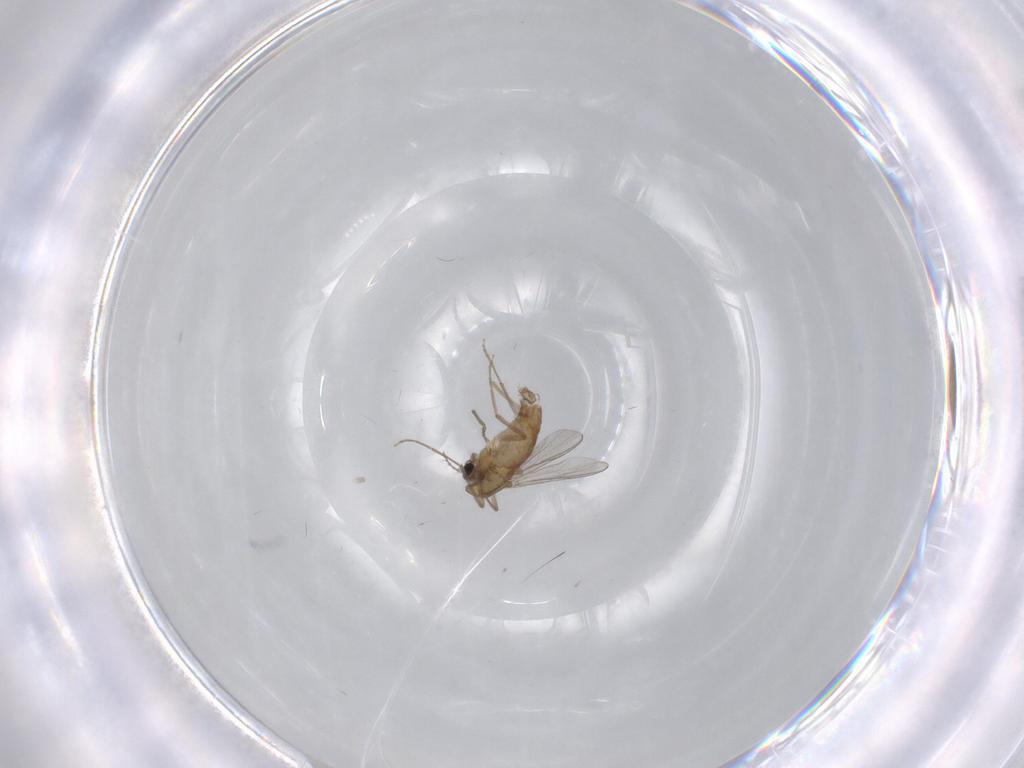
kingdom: Animalia
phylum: Arthropoda
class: Insecta
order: Diptera
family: Chironomidae
